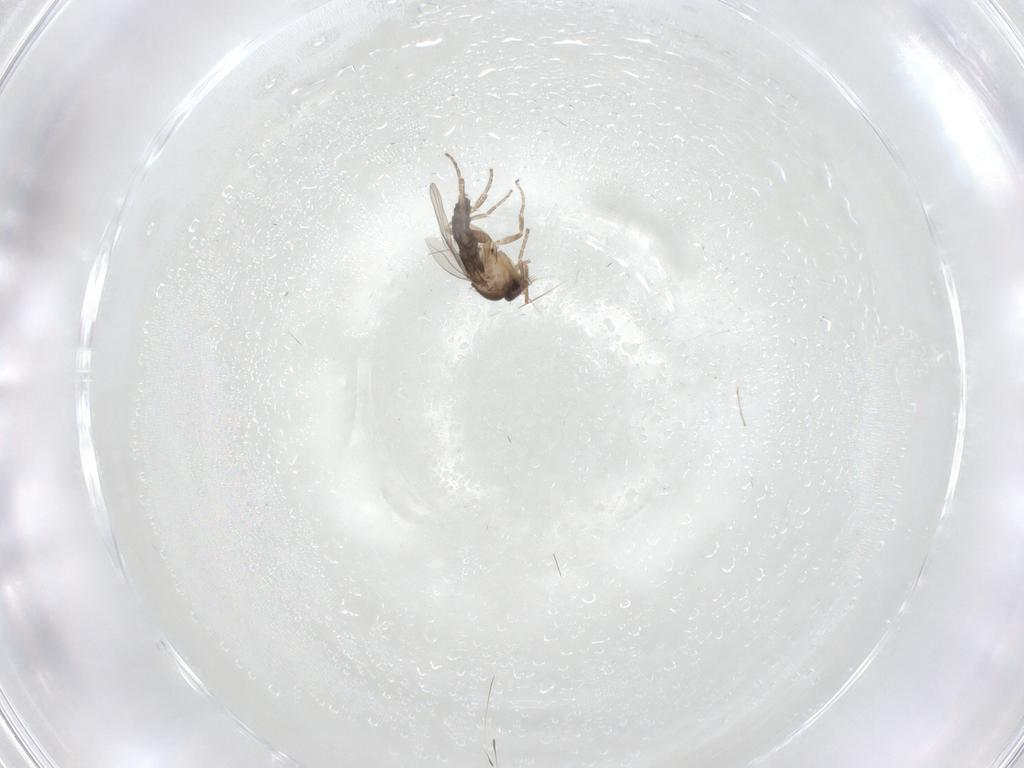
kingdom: Animalia
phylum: Arthropoda
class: Insecta
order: Diptera
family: Phoridae
